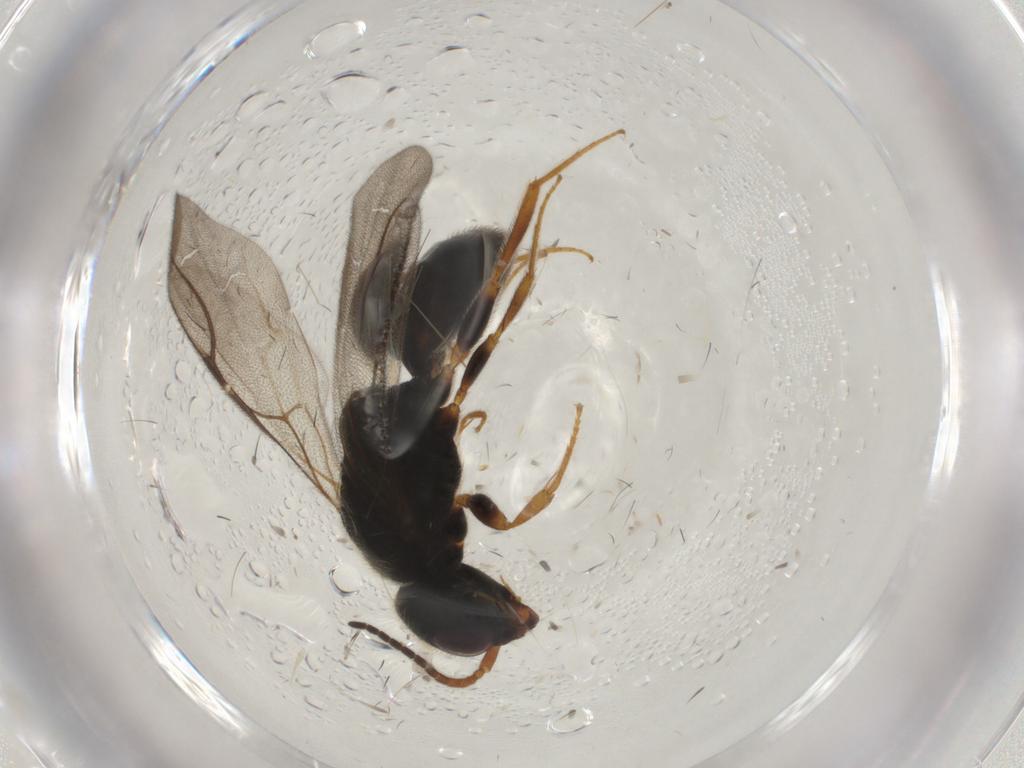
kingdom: Animalia
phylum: Arthropoda
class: Insecta
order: Hymenoptera
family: Bethylidae
